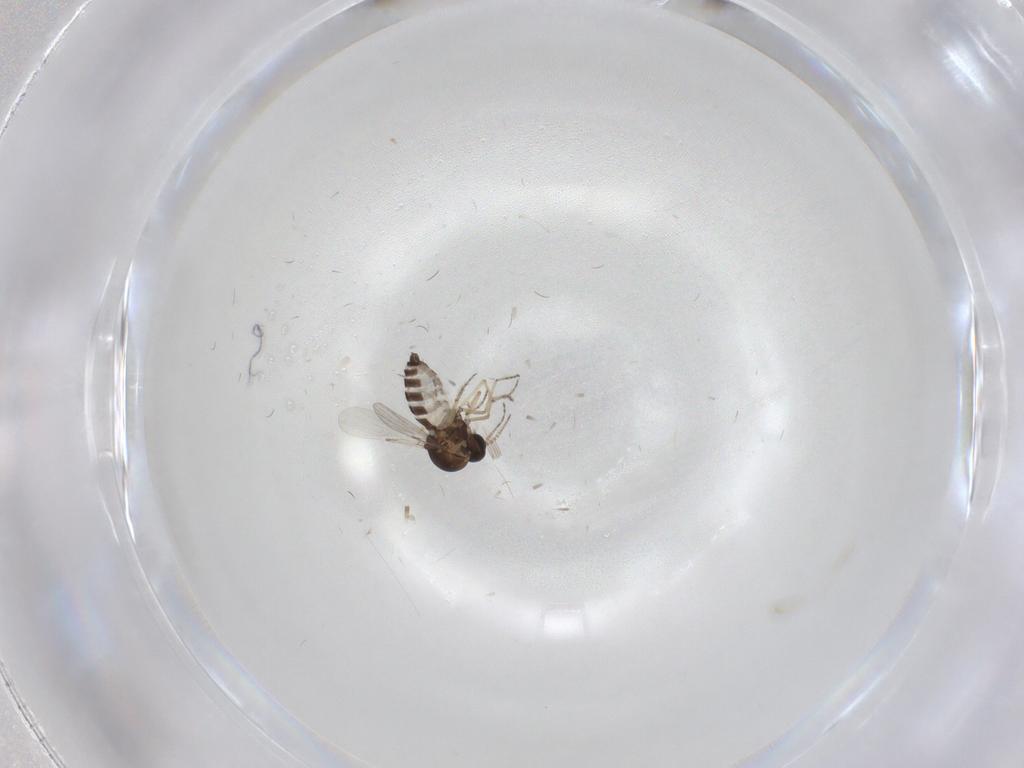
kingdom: Animalia
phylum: Arthropoda
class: Insecta
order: Diptera
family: Ceratopogonidae
